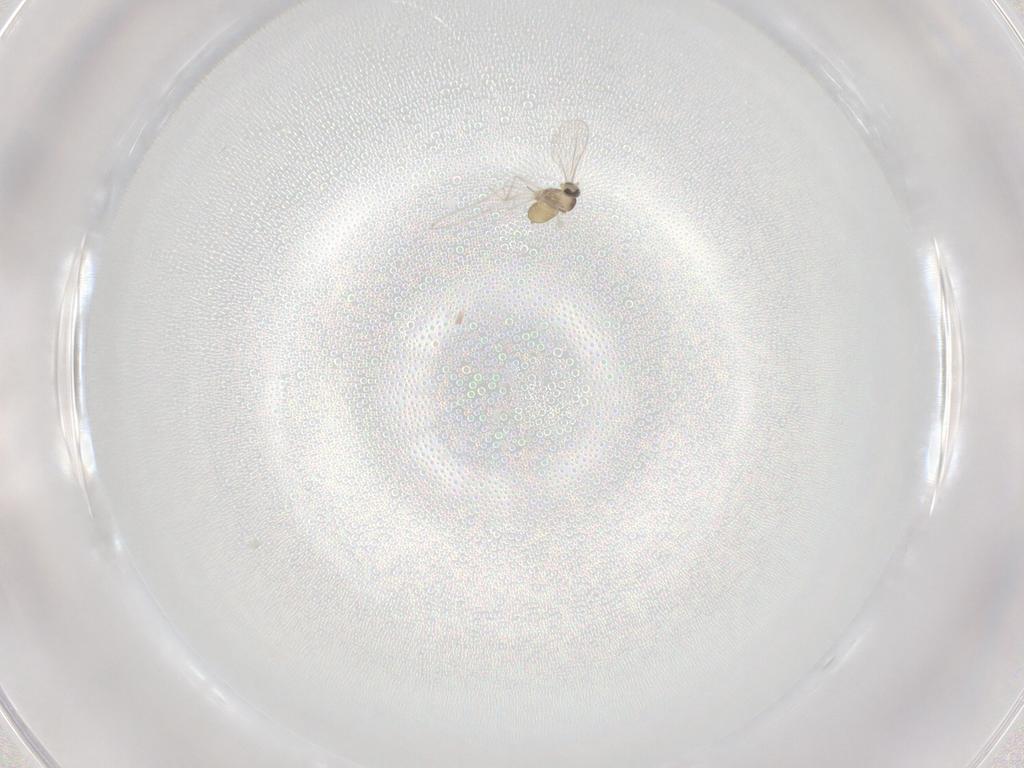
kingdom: Animalia
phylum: Arthropoda
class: Insecta
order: Diptera
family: Cecidomyiidae
